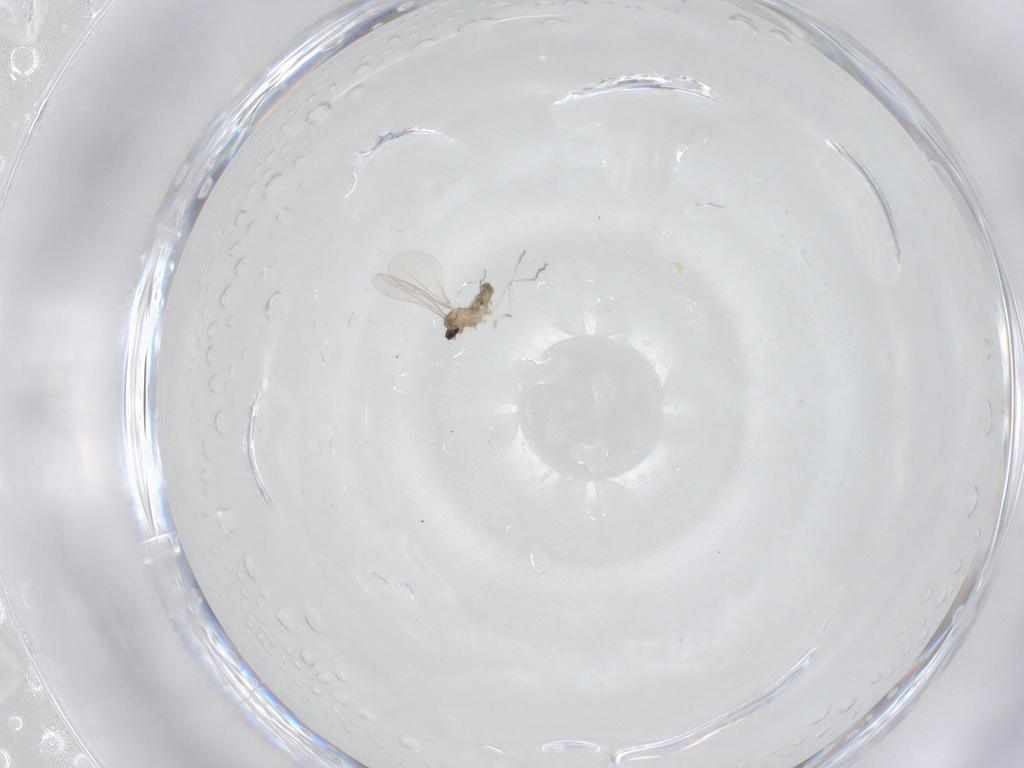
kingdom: Animalia
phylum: Arthropoda
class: Insecta
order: Diptera
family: Cecidomyiidae
